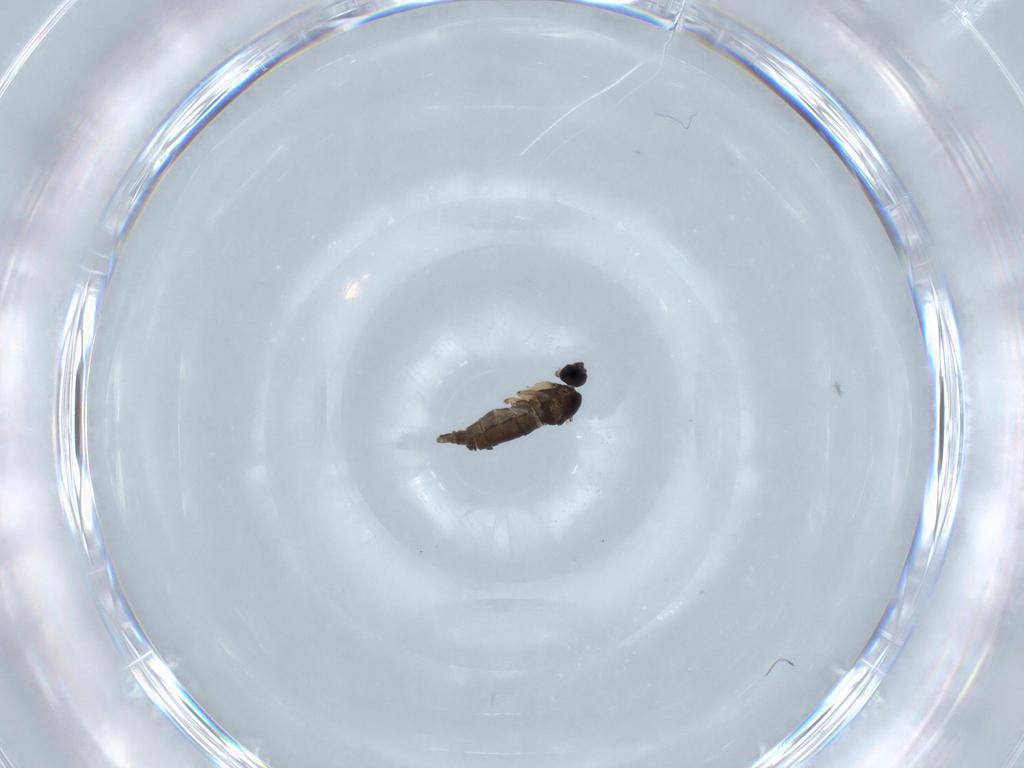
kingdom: Animalia
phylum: Arthropoda
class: Insecta
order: Diptera
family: Sciaridae
